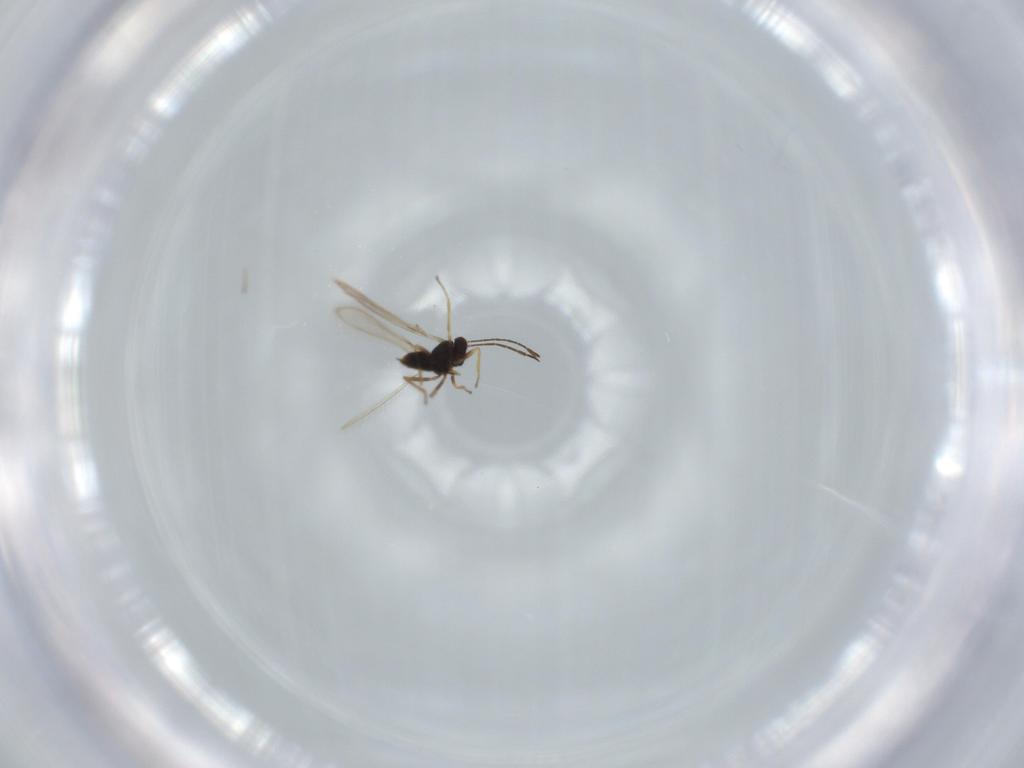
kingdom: Animalia
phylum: Arthropoda
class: Insecta
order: Hymenoptera
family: Mymaridae
